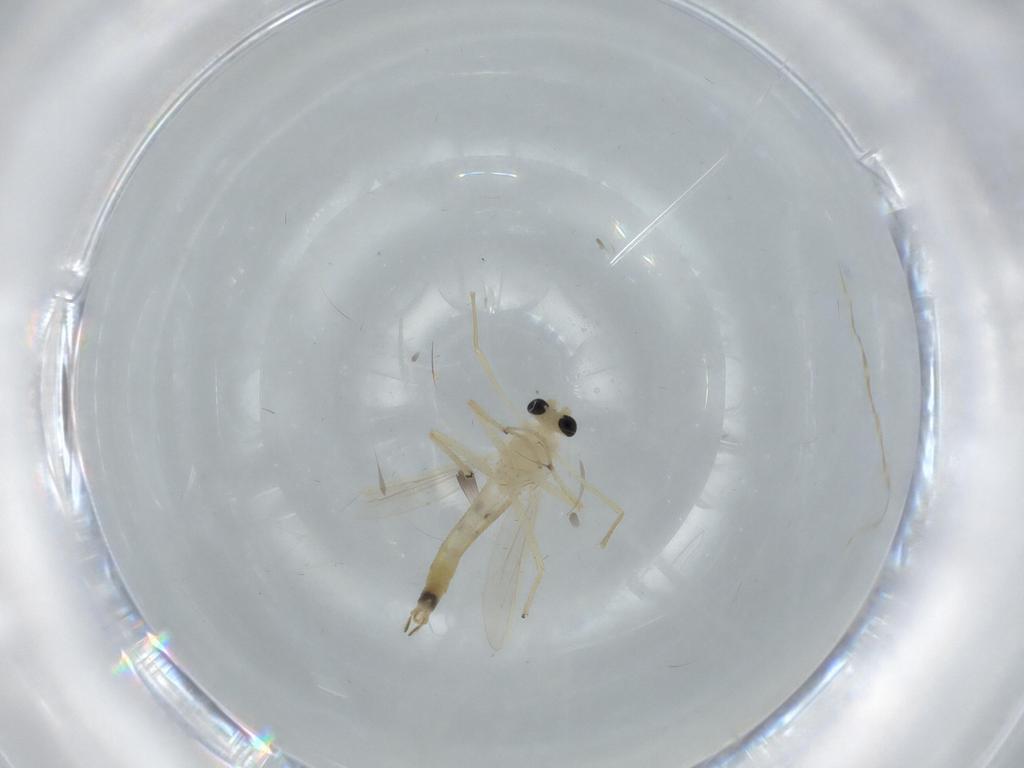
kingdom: Animalia
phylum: Arthropoda
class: Insecta
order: Diptera
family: Chironomidae
